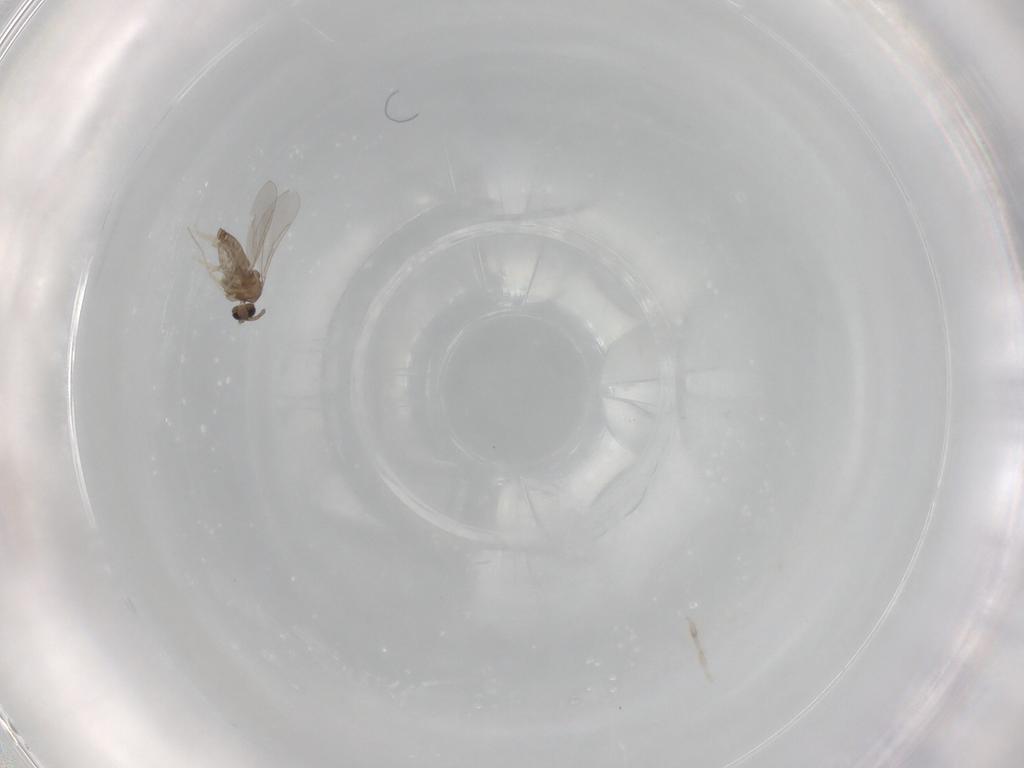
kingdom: Animalia
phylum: Arthropoda
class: Insecta
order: Diptera
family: Cecidomyiidae
